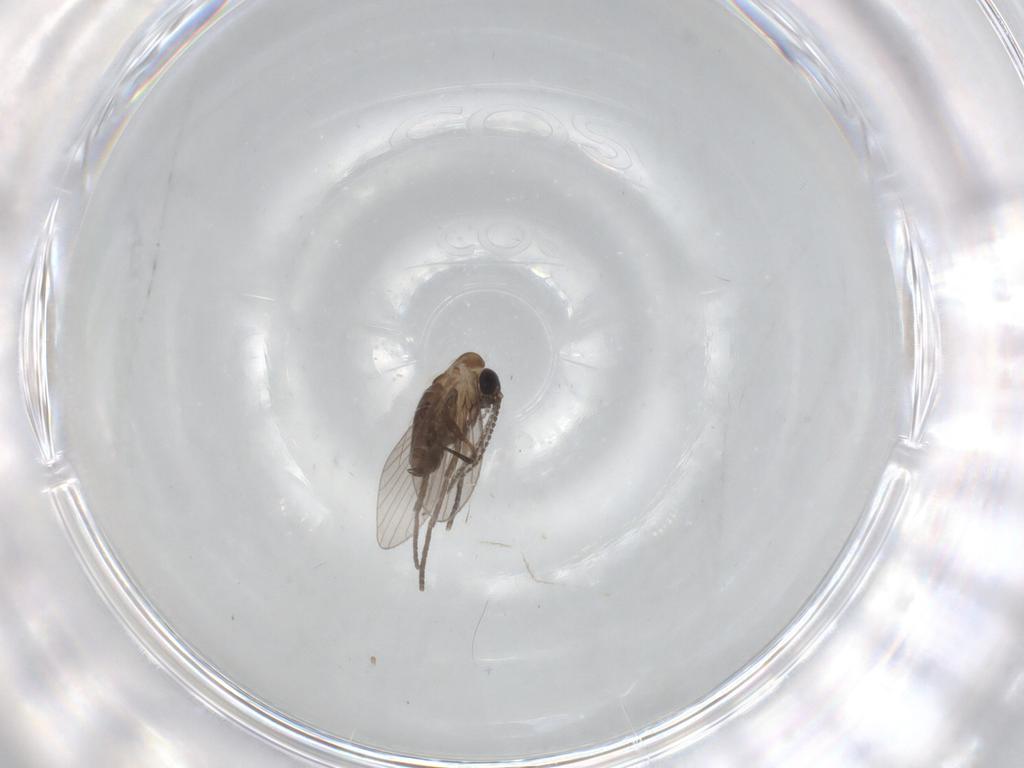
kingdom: Animalia
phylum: Arthropoda
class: Insecta
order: Diptera
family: Psychodidae
